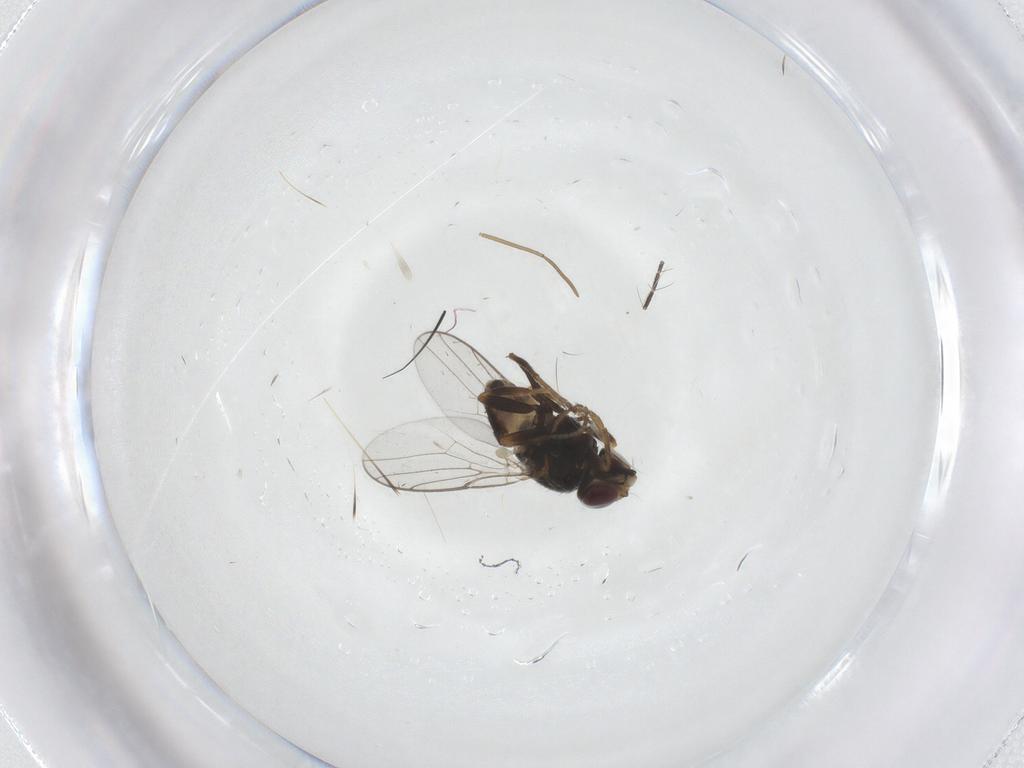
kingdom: Animalia
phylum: Arthropoda
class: Insecta
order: Diptera
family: Chloropidae
